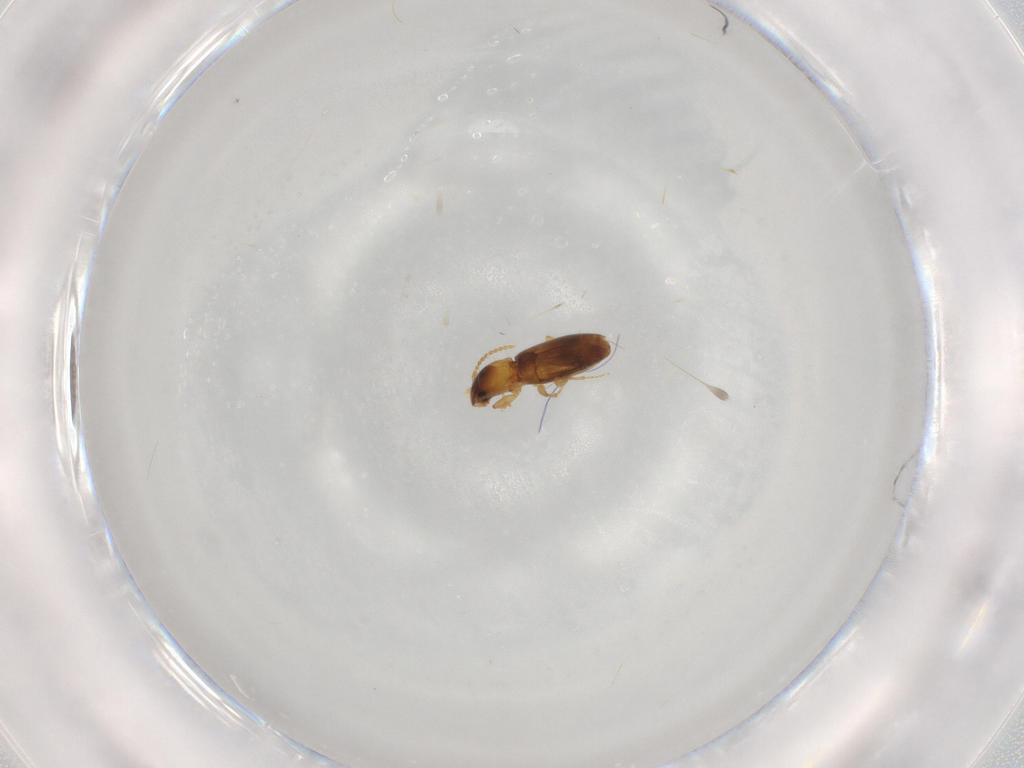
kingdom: Animalia
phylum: Arthropoda
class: Insecta
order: Coleoptera
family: Carabidae
